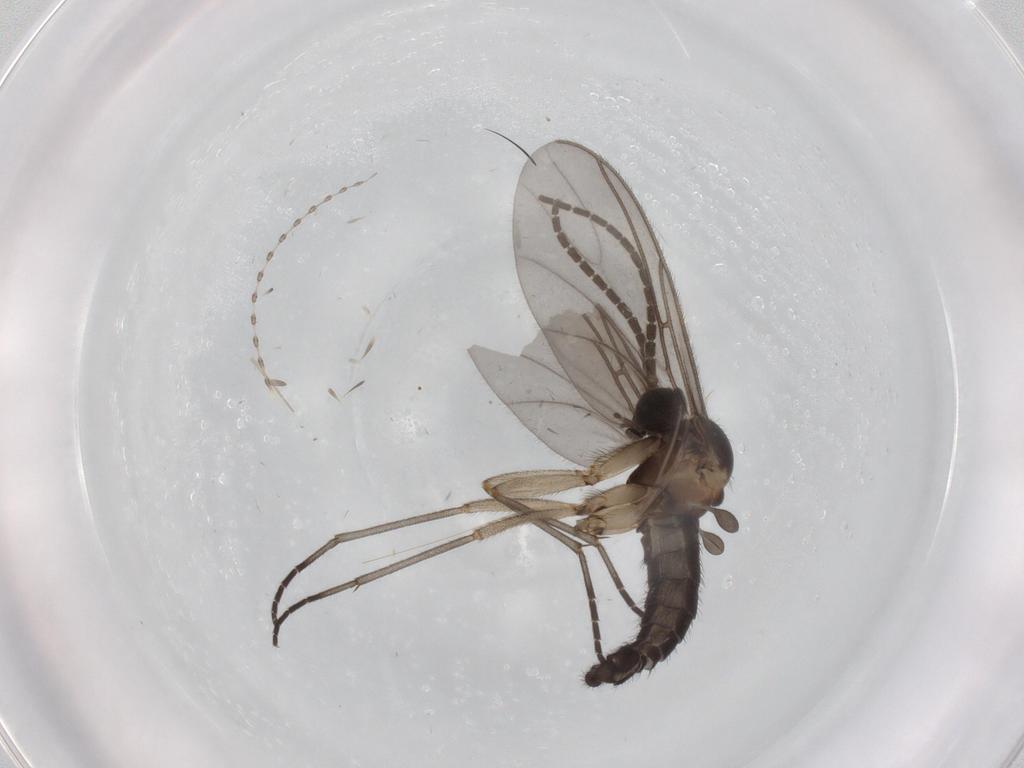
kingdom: Animalia
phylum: Arthropoda
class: Insecta
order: Diptera
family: Sciaridae
